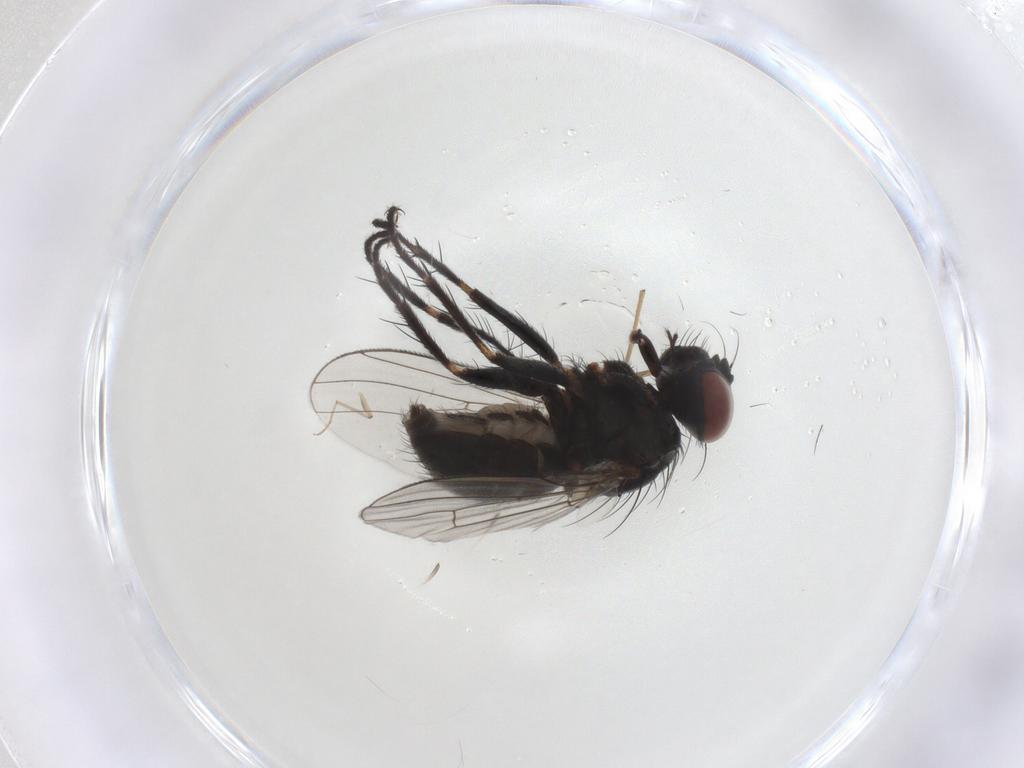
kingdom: Animalia
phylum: Arthropoda
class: Insecta
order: Diptera
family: Muscidae
